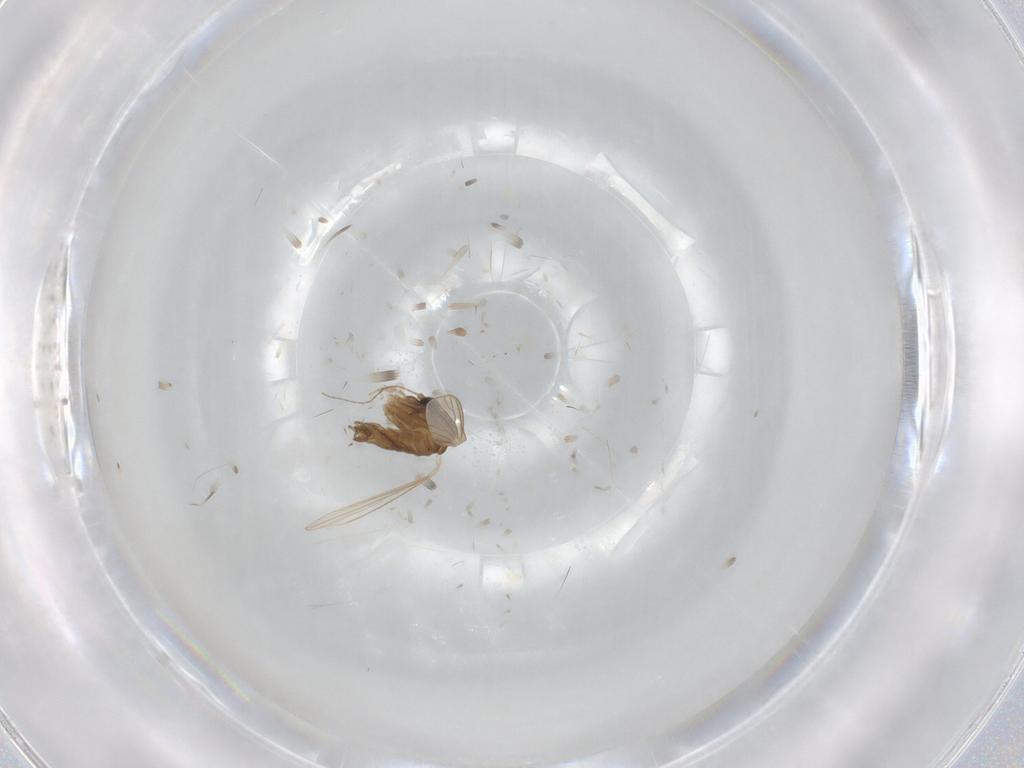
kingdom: Animalia
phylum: Arthropoda
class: Insecta
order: Diptera
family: Psychodidae
